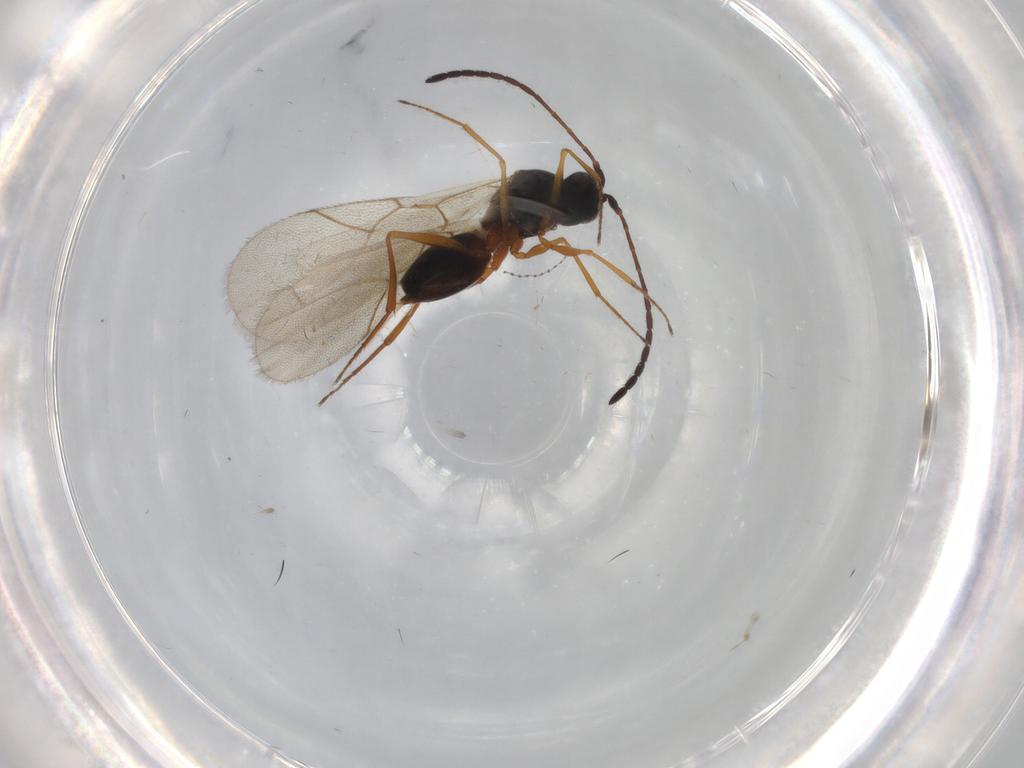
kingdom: Animalia
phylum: Arthropoda
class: Insecta
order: Hymenoptera
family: Figitidae
